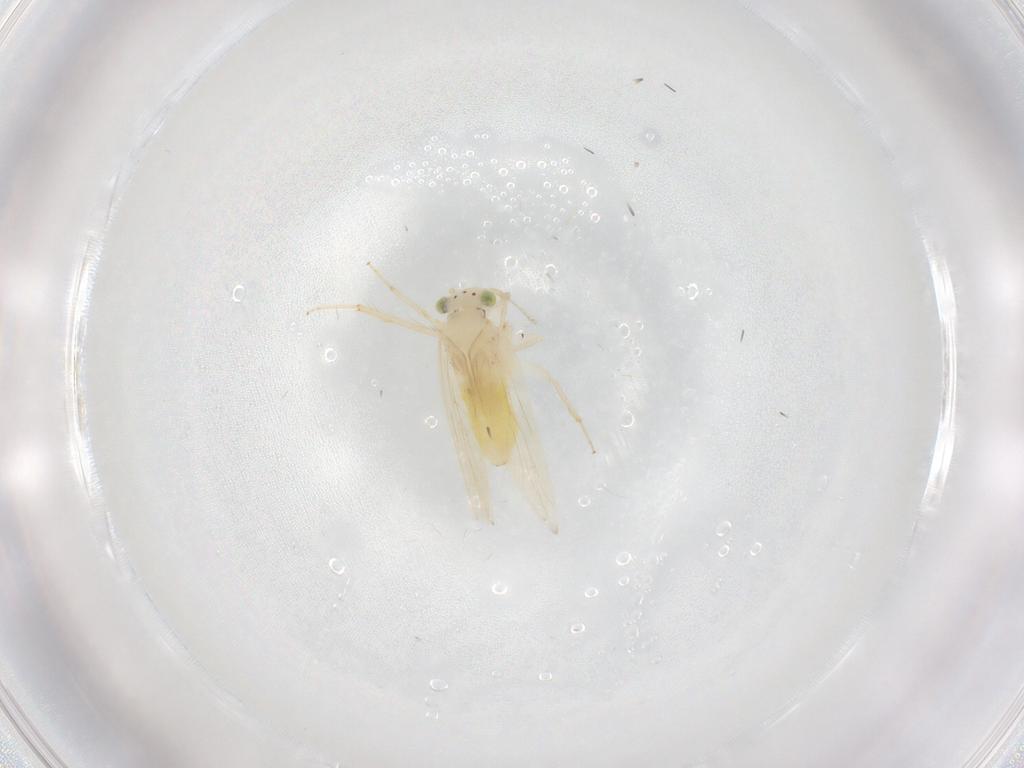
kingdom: Animalia
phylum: Arthropoda
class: Insecta
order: Psocodea
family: Lepidopsocidae
